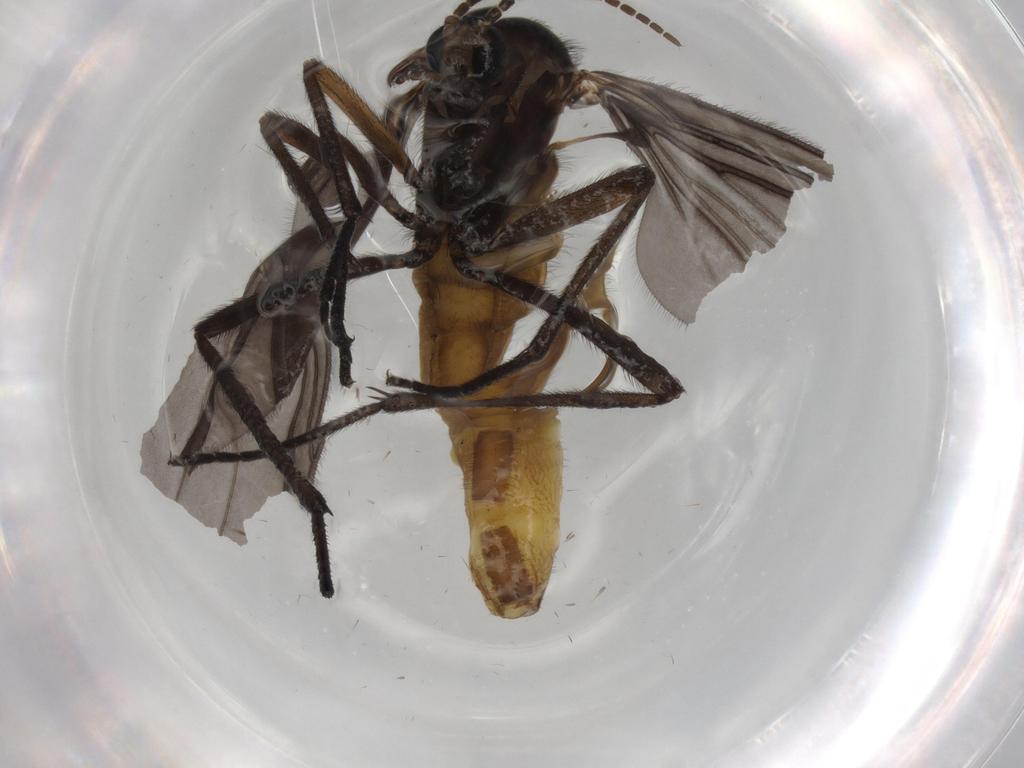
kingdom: Animalia
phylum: Arthropoda
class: Insecta
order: Diptera
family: Sciaridae
